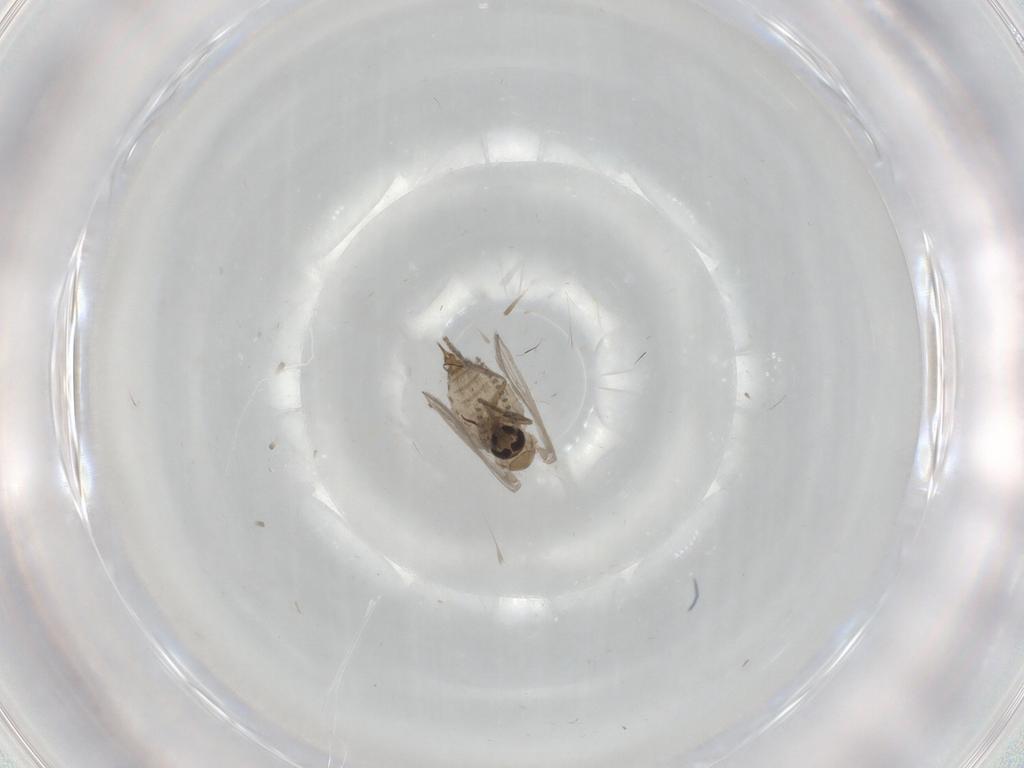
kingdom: Animalia
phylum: Arthropoda
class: Insecta
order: Diptera
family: Psychodidae
